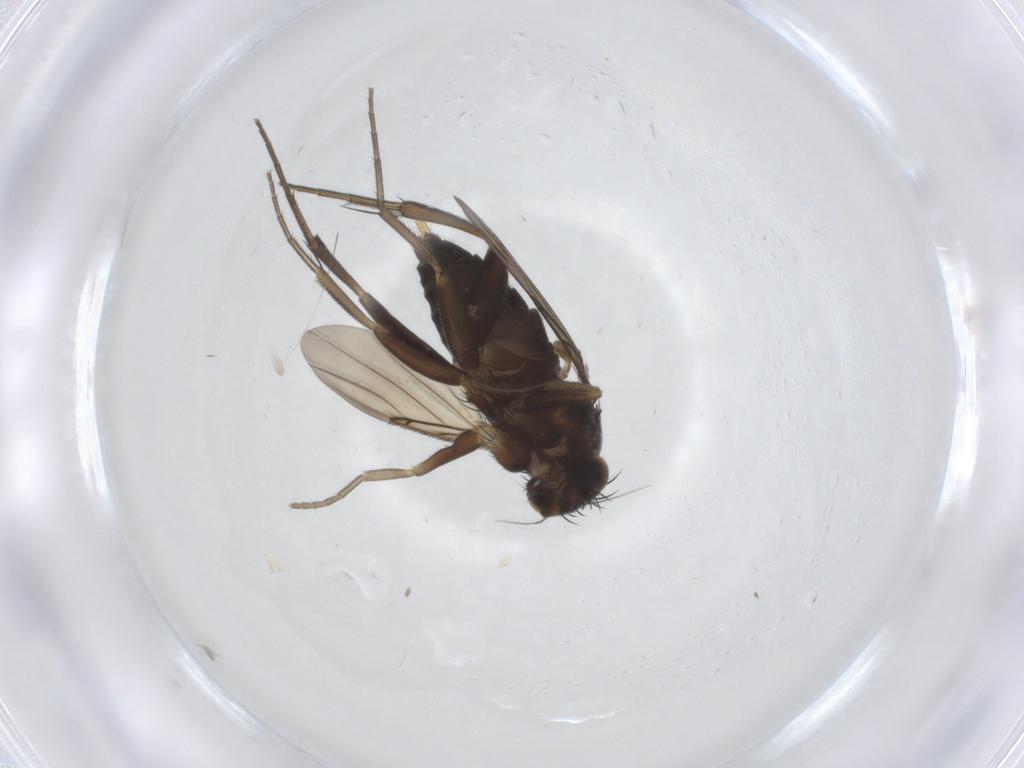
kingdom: Animalia
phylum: Arthropoda
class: Insecta
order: Diptera
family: Phoridae
